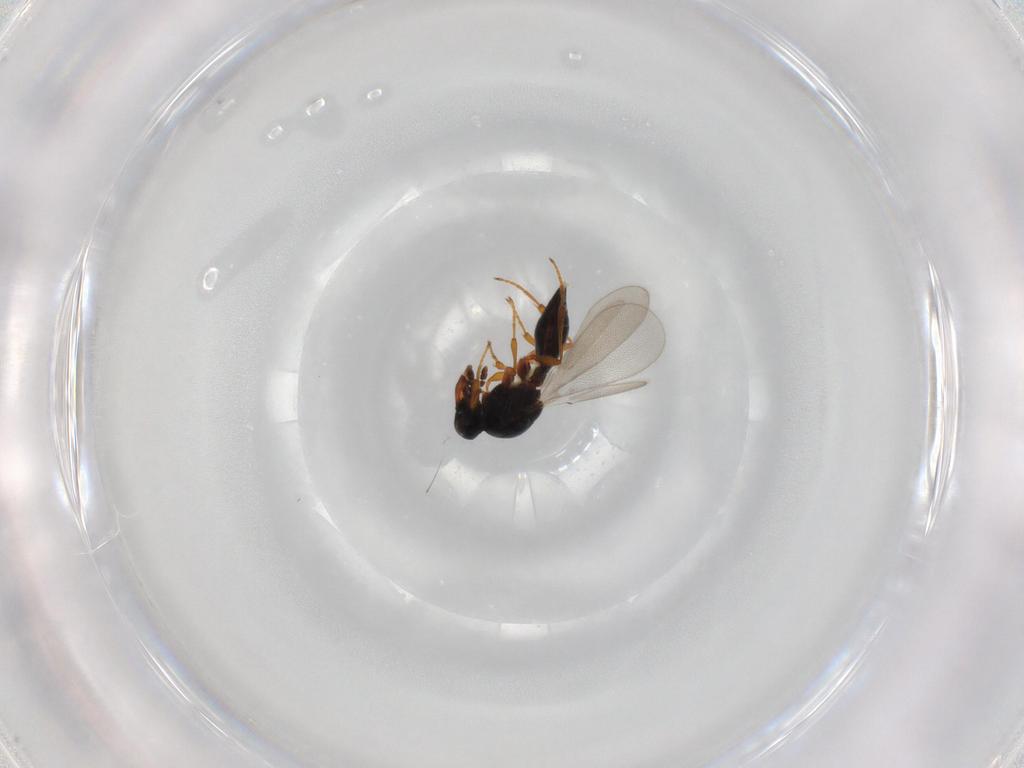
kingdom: Animalia
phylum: Arthropoda
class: Insecta
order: Hymenoptera
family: Platygastridae
